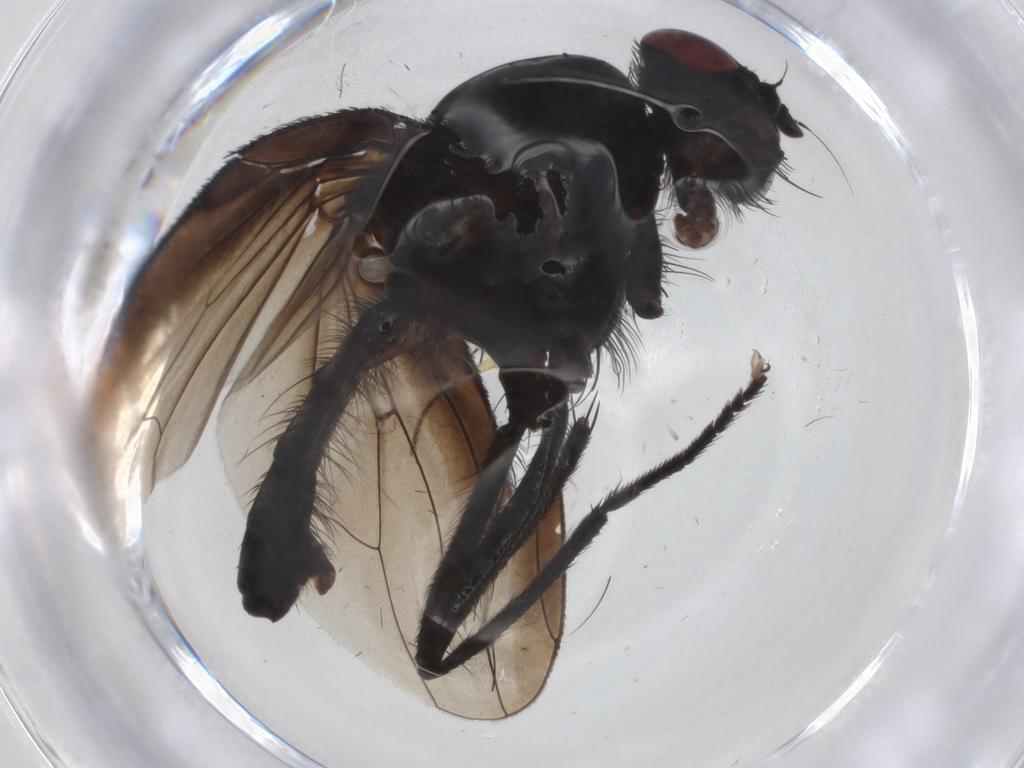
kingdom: Animalia
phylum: Arthropoda
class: Insecta
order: Diptera
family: Anthomyiidae
